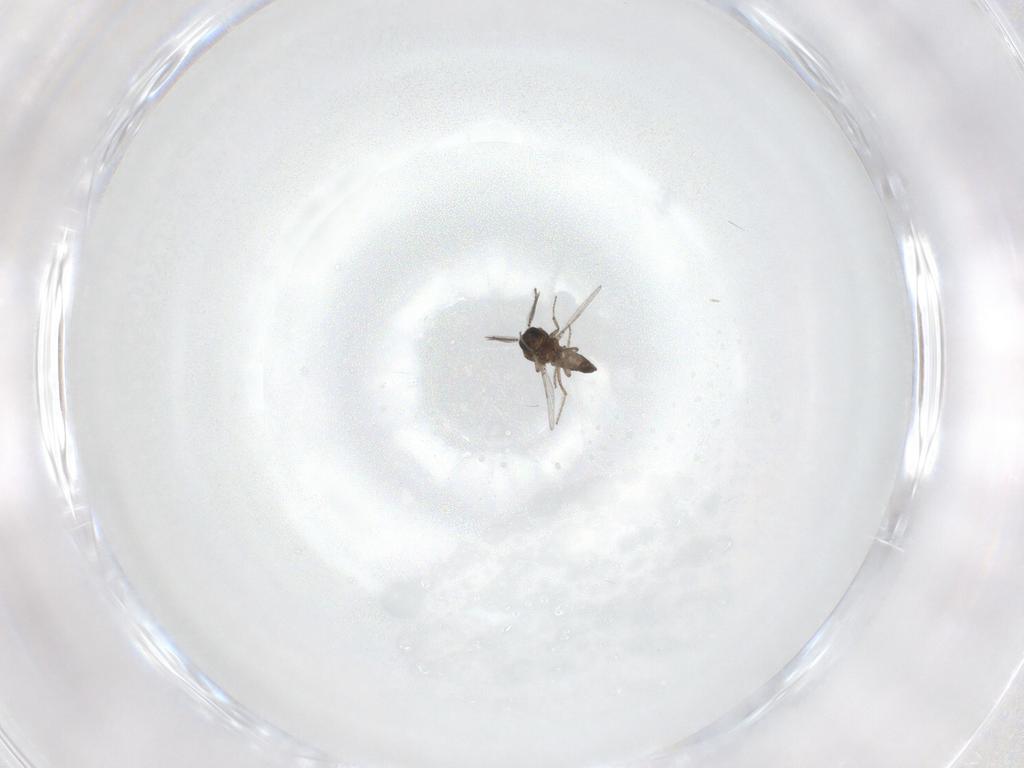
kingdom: Animalia
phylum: Arthropoda
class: Insecta
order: Diptera
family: Ceratopogonidae
